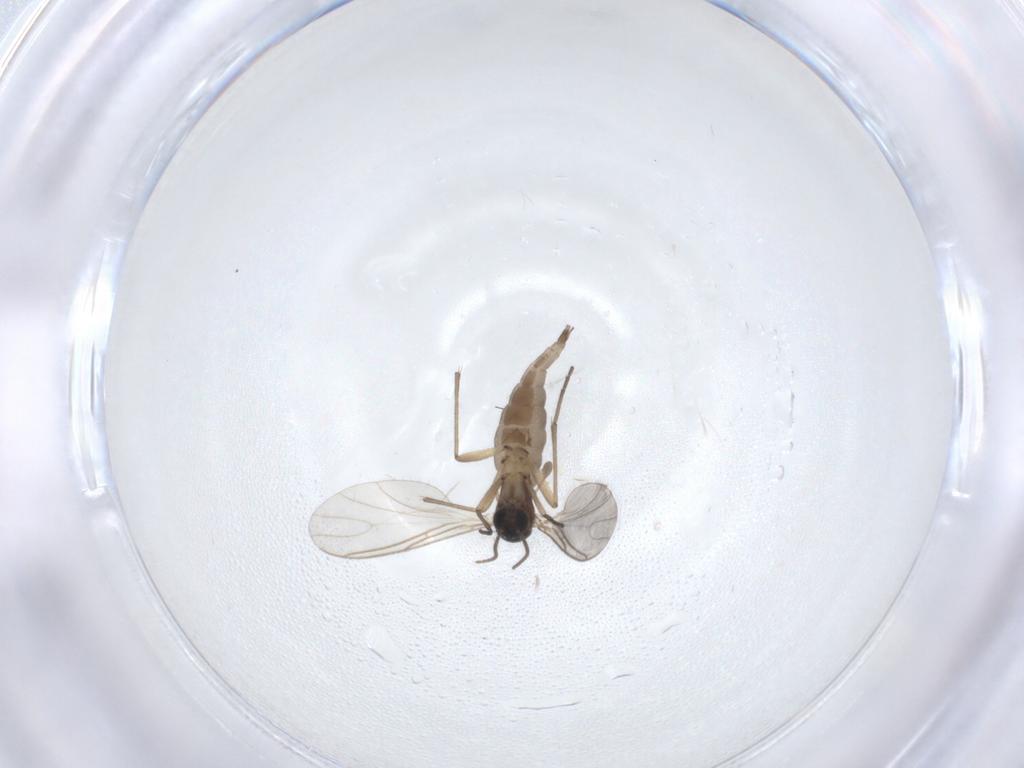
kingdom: Animalia
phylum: Arthropoda
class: Insecta
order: Diptera
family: Sciaridae
